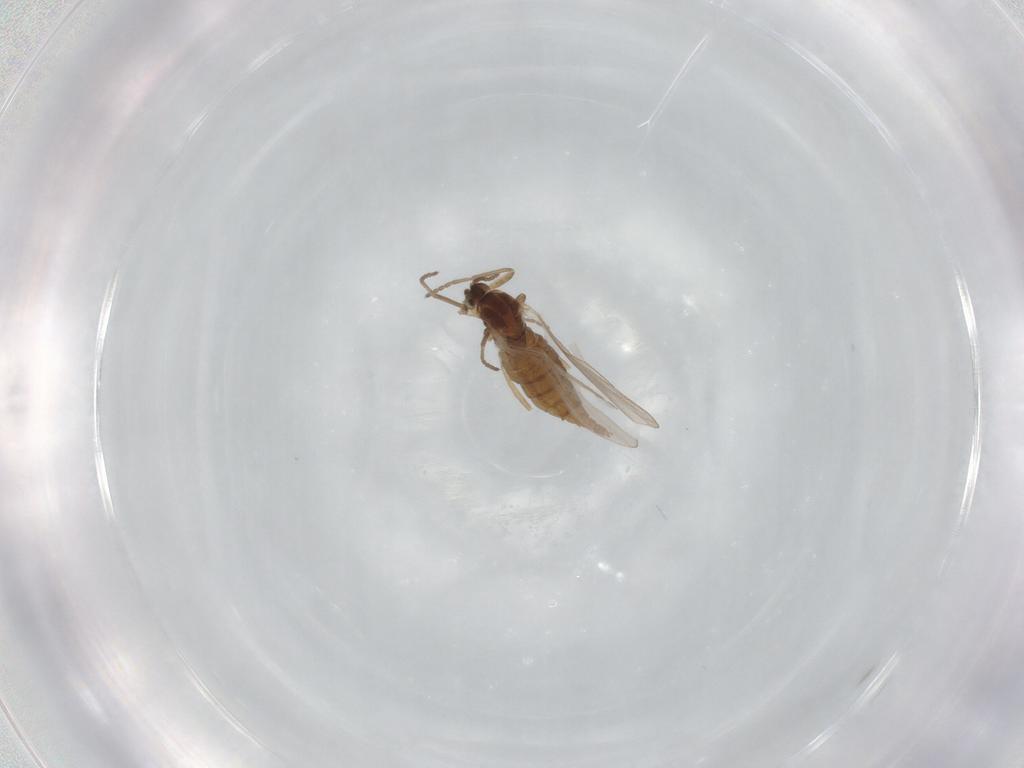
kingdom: Animalia
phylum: Arthropoda
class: Insecta
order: Diptera
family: Cecidomyiidae
